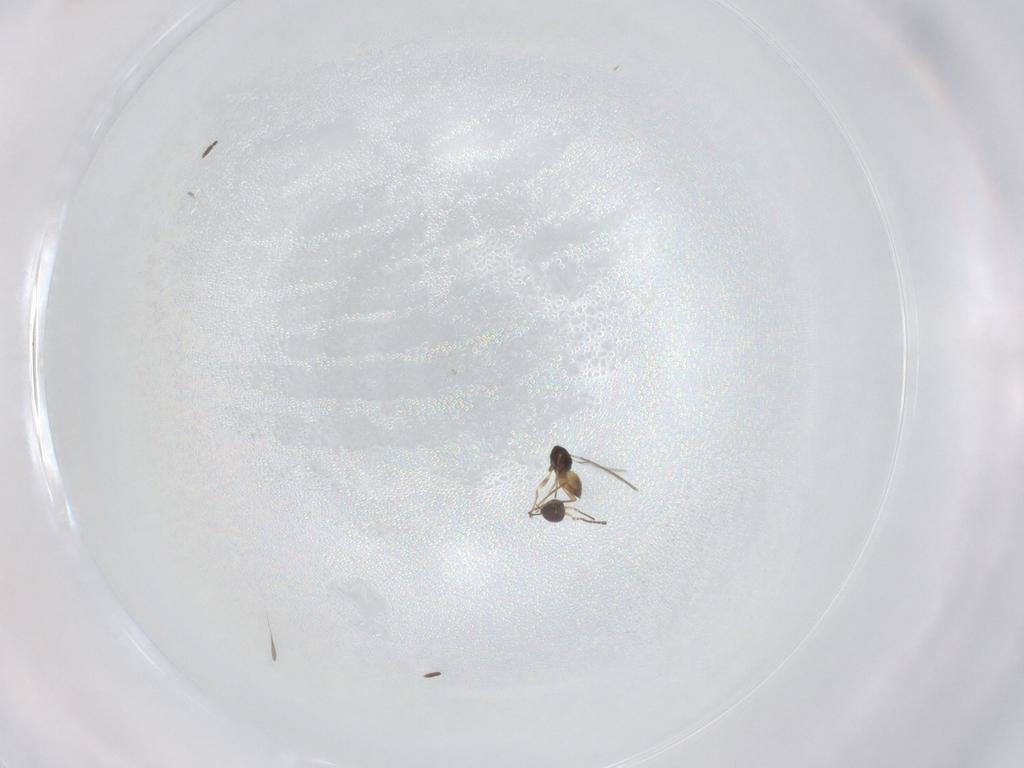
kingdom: Animalia
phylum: Arthropoda
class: Insecta
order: Hymenoptera
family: Mymaridae
